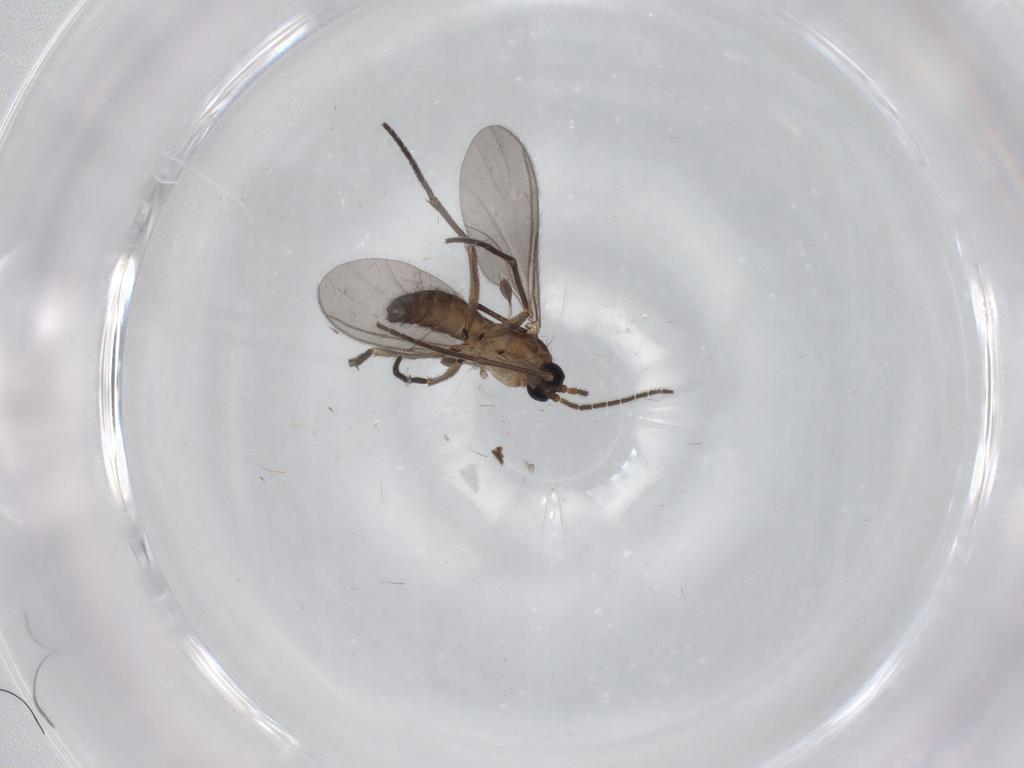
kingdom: Animalia
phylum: Arthropoda
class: Insecta
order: Diptera
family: Sciaridae
